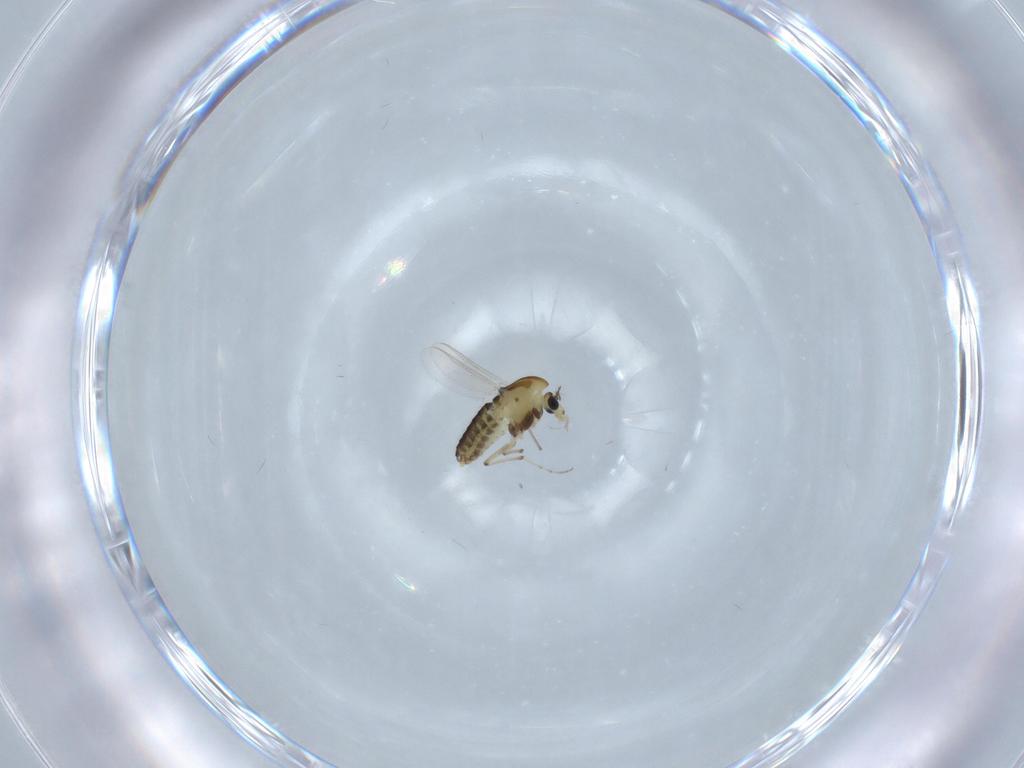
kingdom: Animalia
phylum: Arthropoda
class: Insecta
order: Diptera
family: Chironomidae
